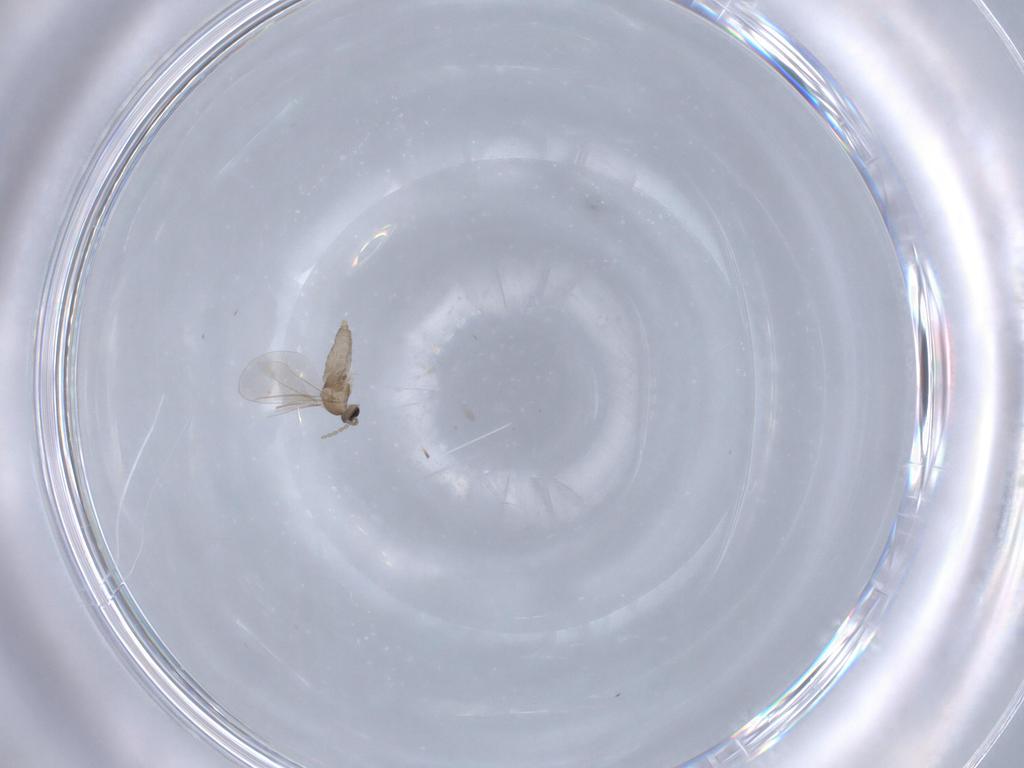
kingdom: Animalia
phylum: Arthropoda
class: Insecta
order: Diptera
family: Cecidomyiidae
